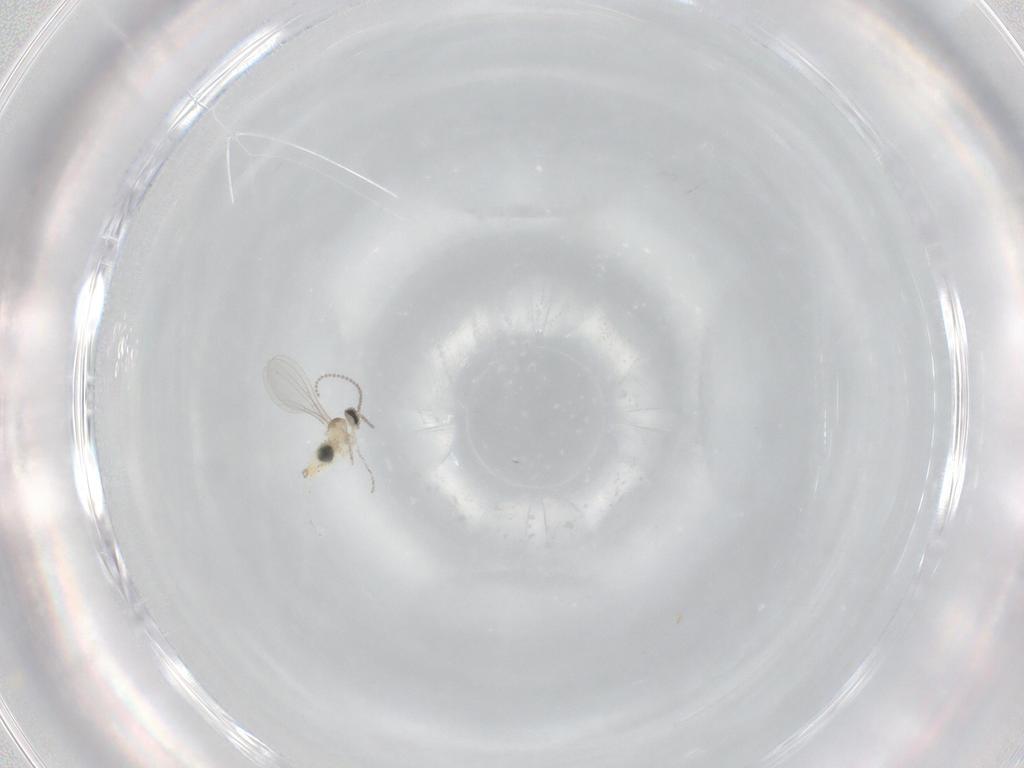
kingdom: Animalia
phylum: Arthropoda
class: Insecta
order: Diptera
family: Cecidomyiidae
